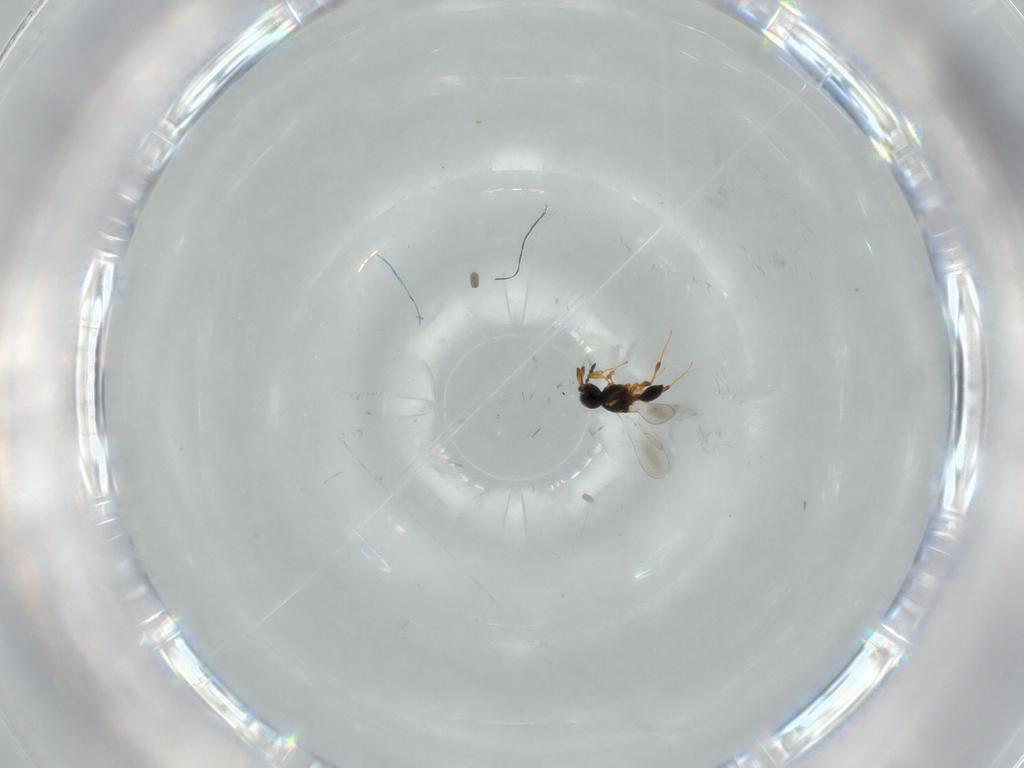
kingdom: Animalia
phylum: Arthropoda
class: Insecta
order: Hymenoptera
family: Platygastridae
